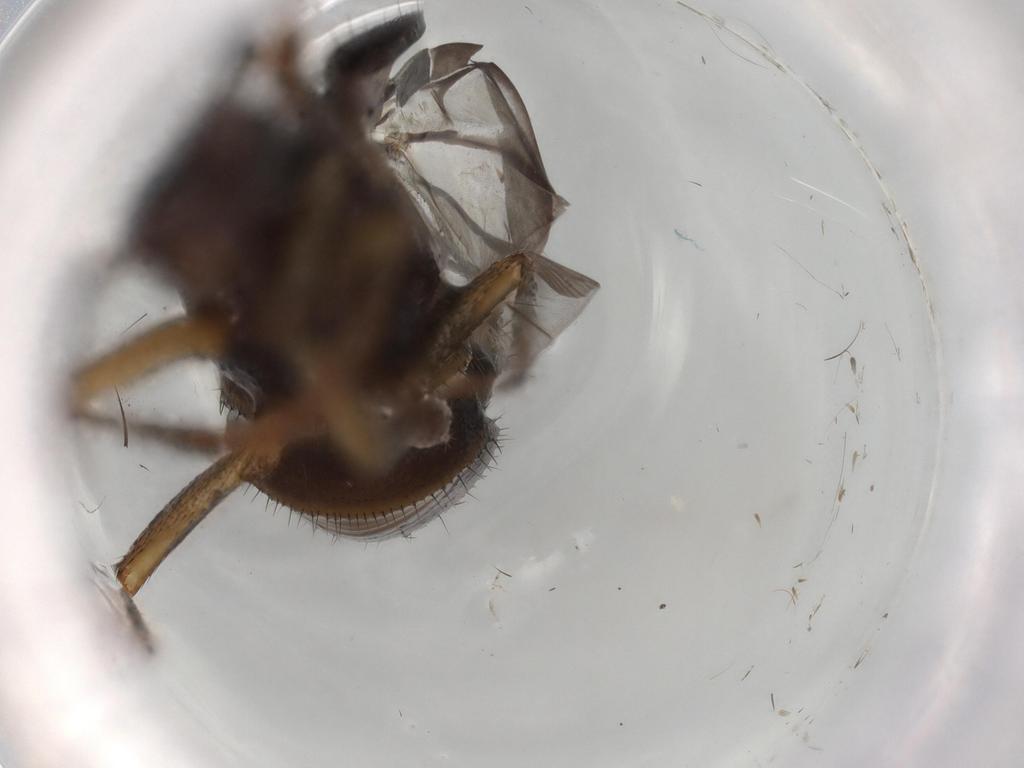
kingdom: Animalia
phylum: Arthropoda
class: Insecta
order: Coleoptera
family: Staphylinidae
